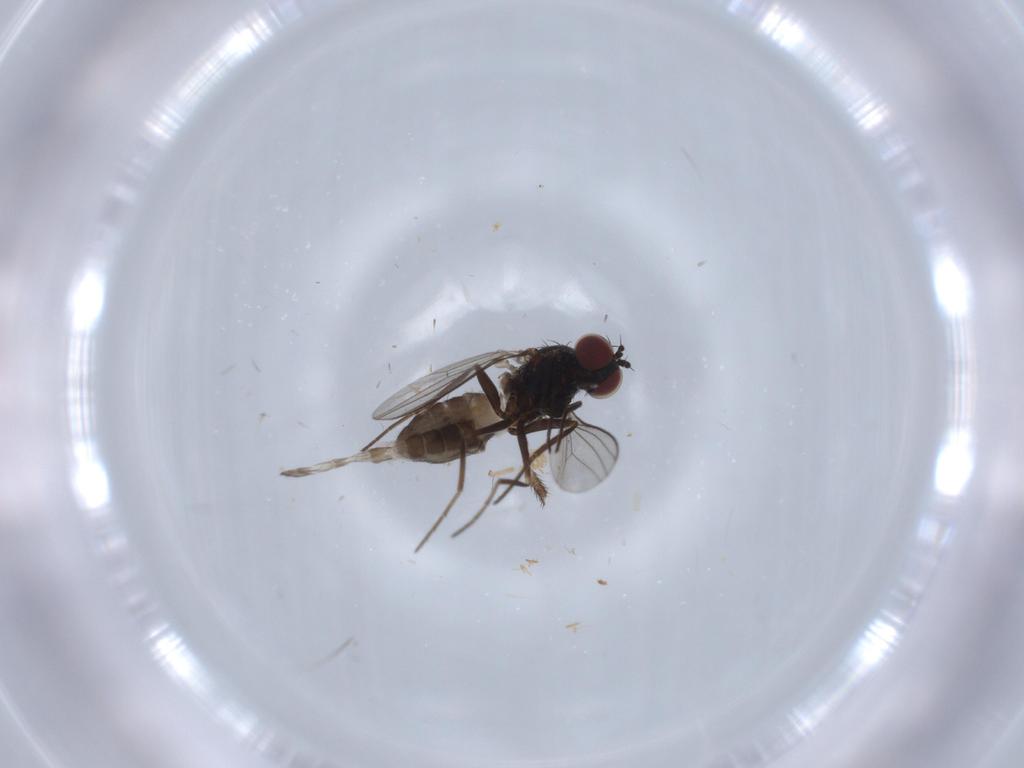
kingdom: Animalia
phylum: Arthropoda
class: Insecta
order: Diptera
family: Dolichopodidae
